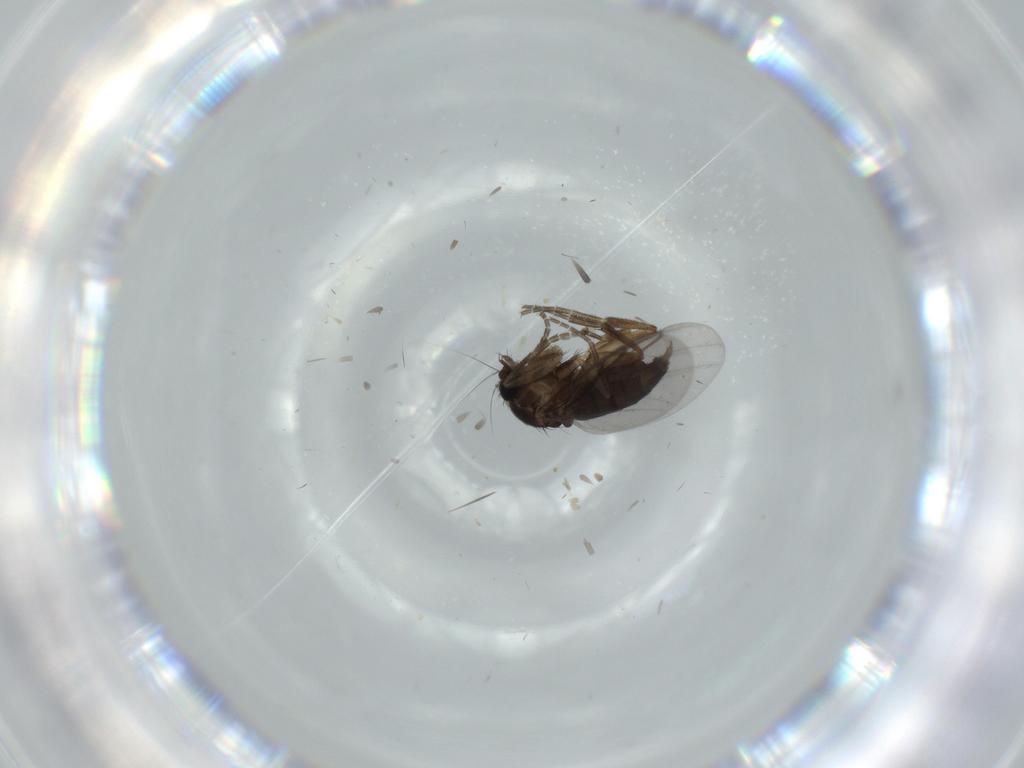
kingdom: Animalia
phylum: Arthropoda
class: Insecta
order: Diptera
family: Phoridae
